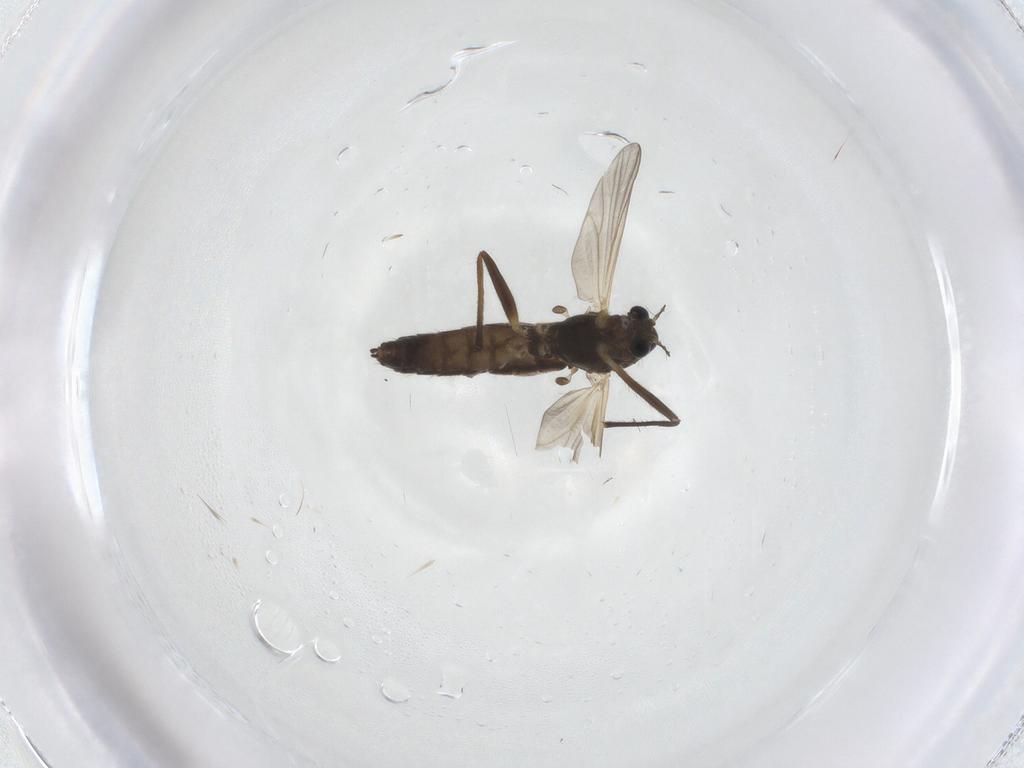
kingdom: Animalia
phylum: Arthropoda
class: Insecta
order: Diptera
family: Chironomidae
